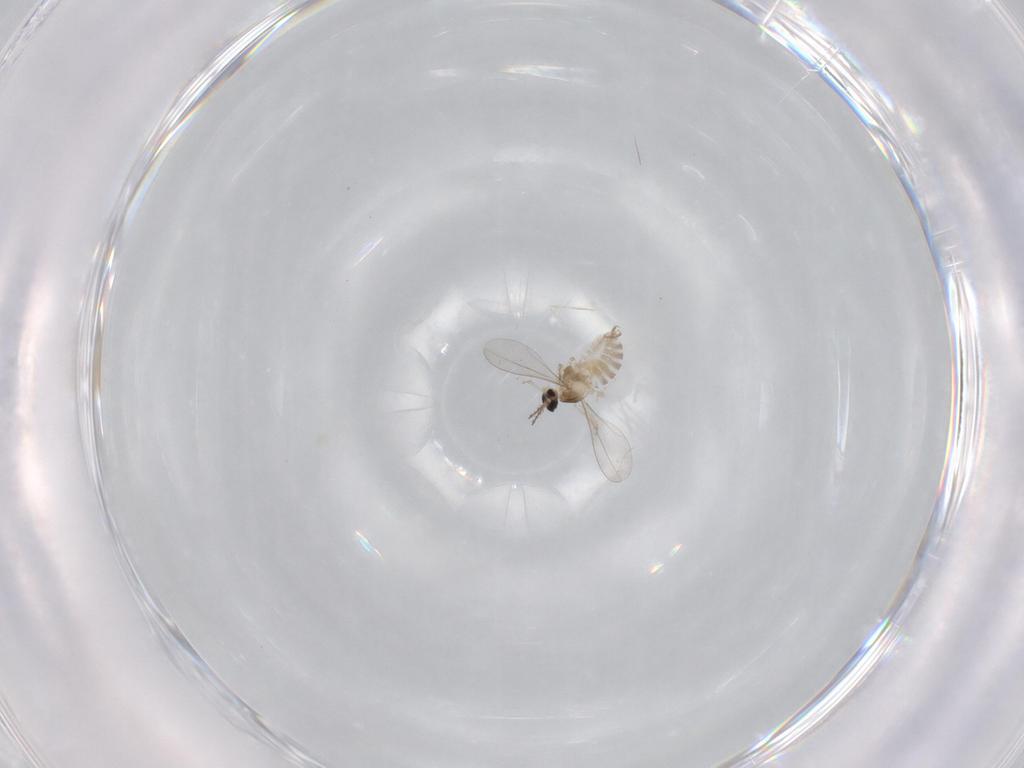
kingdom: Animalia
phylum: Arthropoda
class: Insecta
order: Diptera
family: Cecidomyiidae
